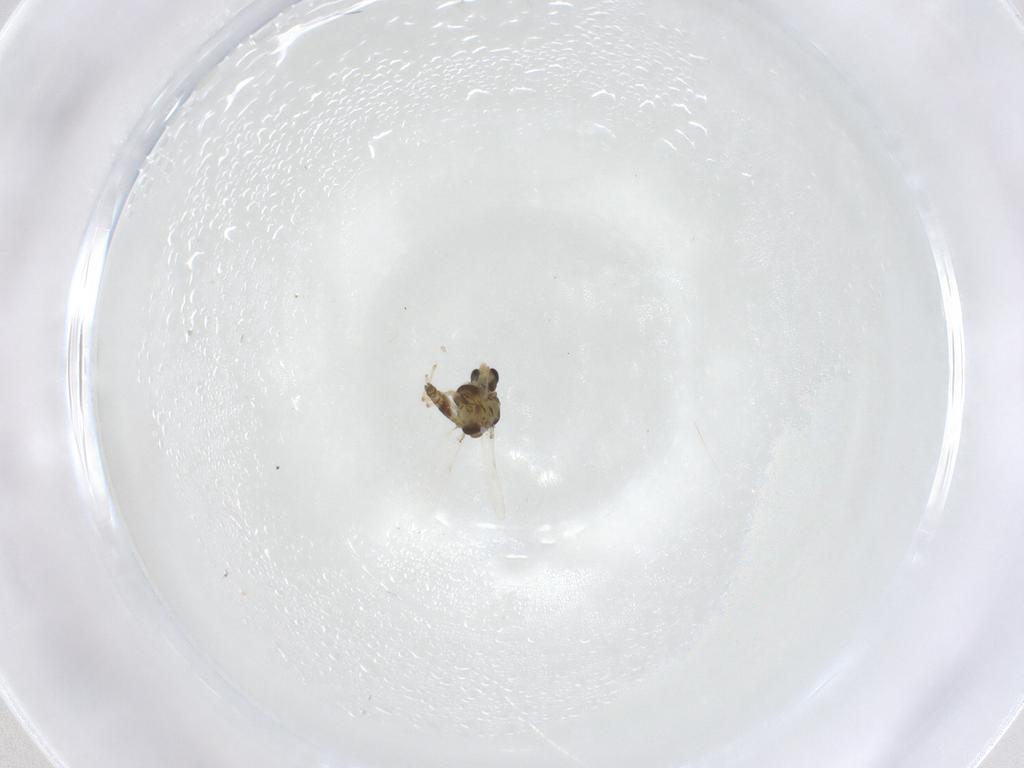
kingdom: Animalia
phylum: Arthropoda
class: Insecta
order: Diptera
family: Chironomidae
